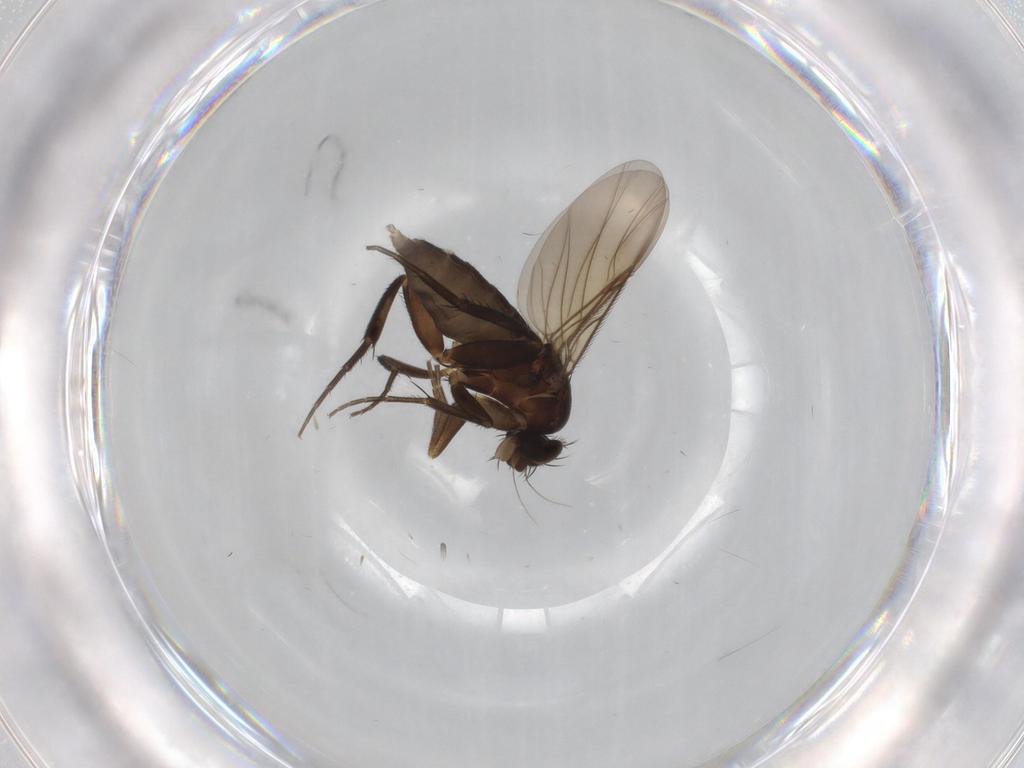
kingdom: Animalia
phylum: Arthropoda
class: Insecta
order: Diptera
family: Phoridae
